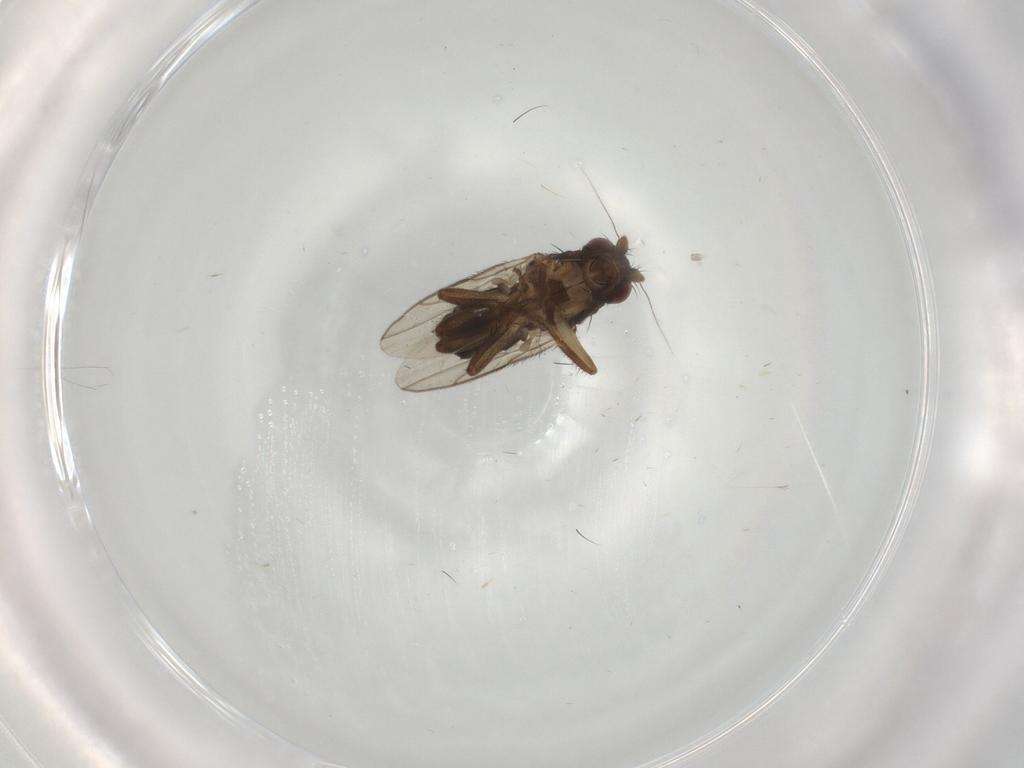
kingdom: Animalia
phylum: Arthropoda
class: Insecta
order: Diptera
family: Sphaeroceridae
